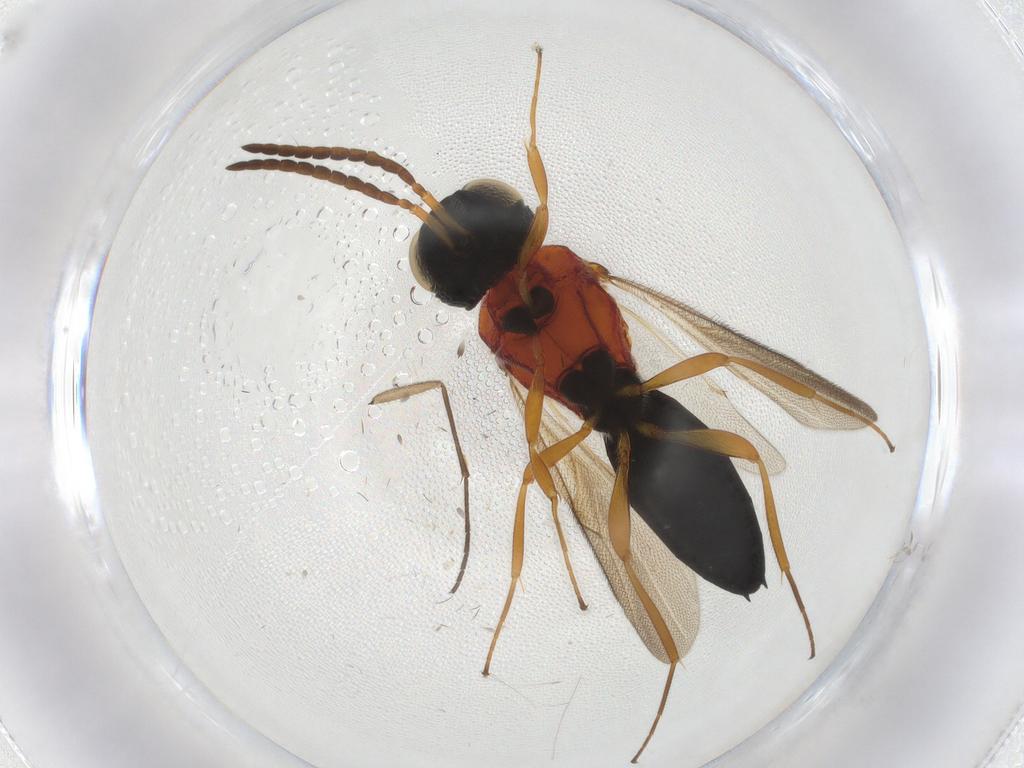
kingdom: Animalia
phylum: Arthropoda
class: Insecta
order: Hymenoptera
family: Scelionidae
